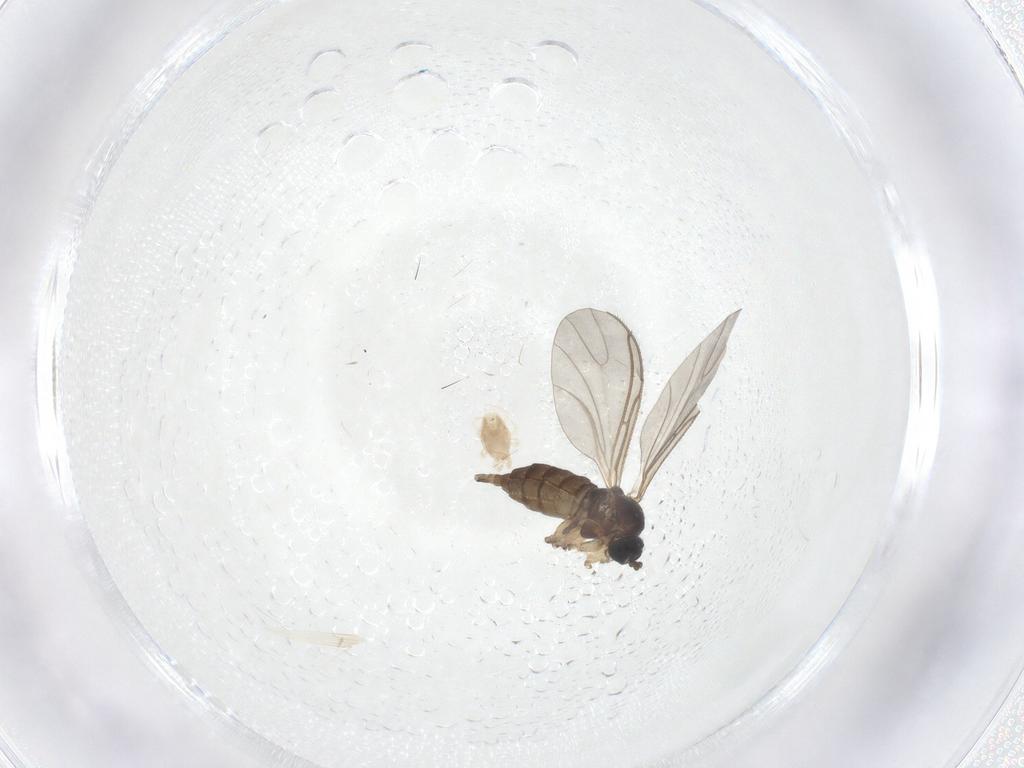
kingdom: Animalia
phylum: Arthropoda
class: Insecta
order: Diptera
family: Sciaridae
